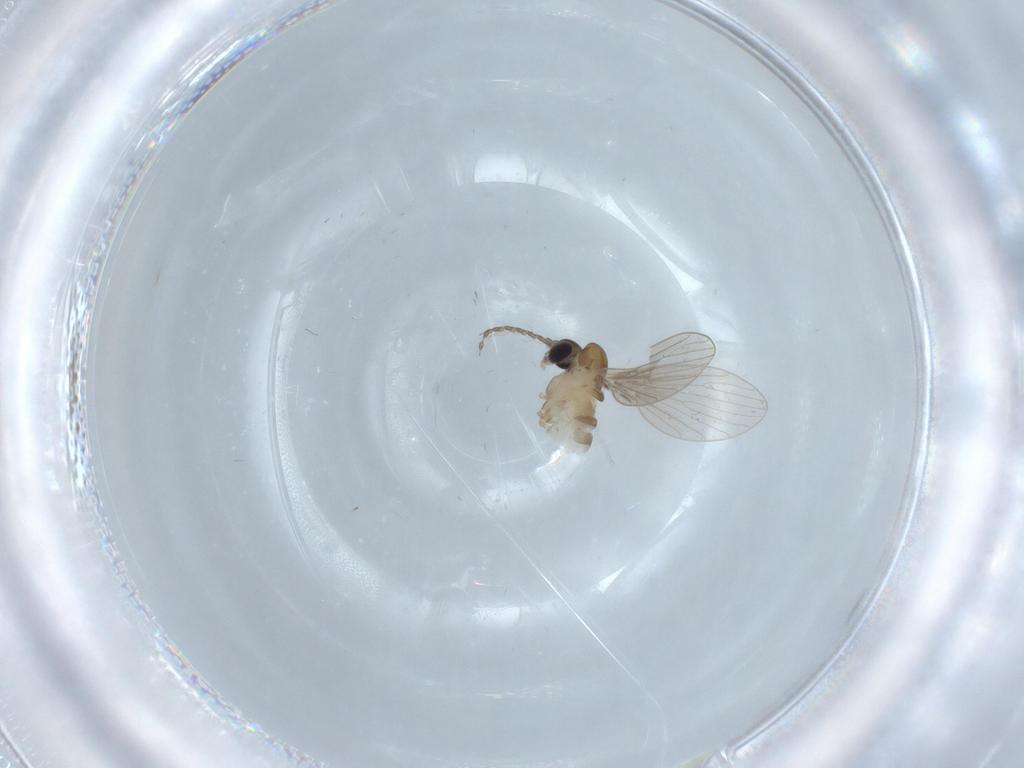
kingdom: Animalia
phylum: Arthropoda
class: Insecta
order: Diptera
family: Psychodidae
